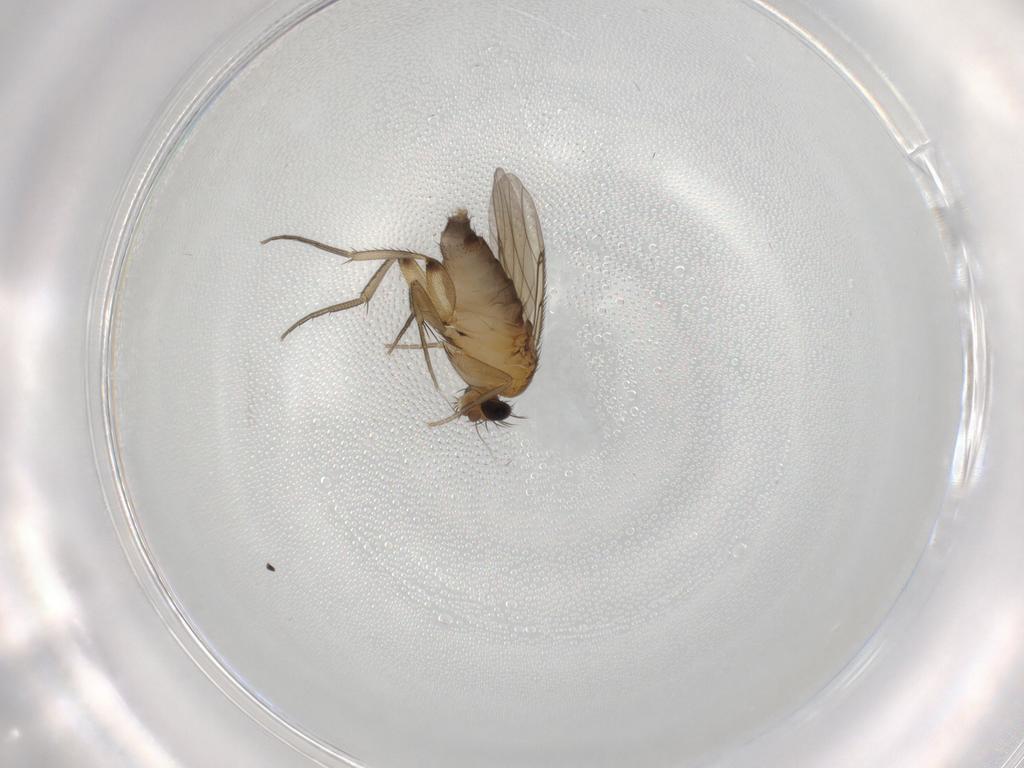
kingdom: Animalia
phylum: Arthropoda
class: Insecta
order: Diptera
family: Phoridae
